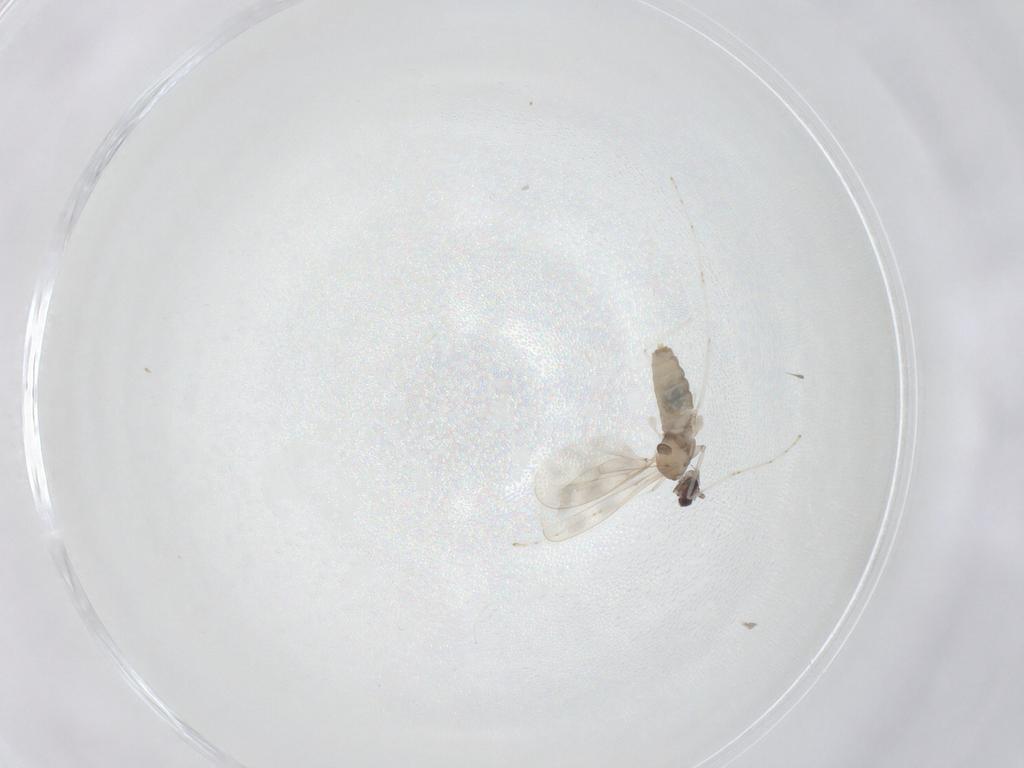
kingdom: Animalia
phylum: Arthropoda
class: Insecta
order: Diptera
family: Cecidomyiidae
